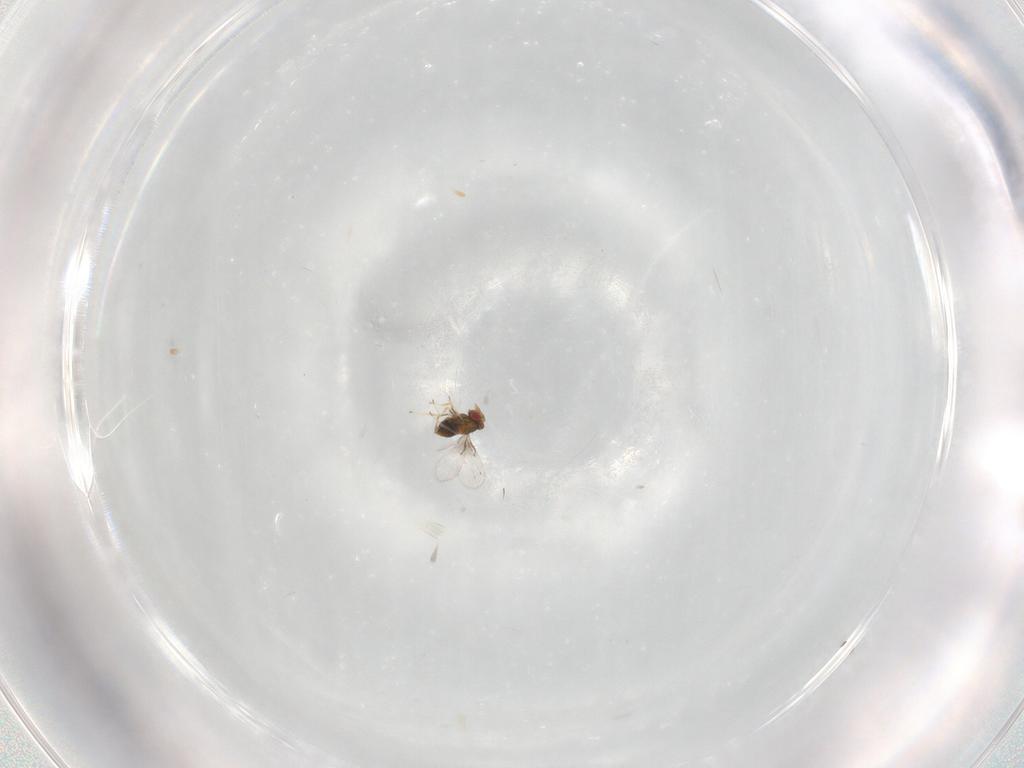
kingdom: Animalia
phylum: Arthropoda
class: Insecta
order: Hymenoptera
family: Trichogrammatidae
